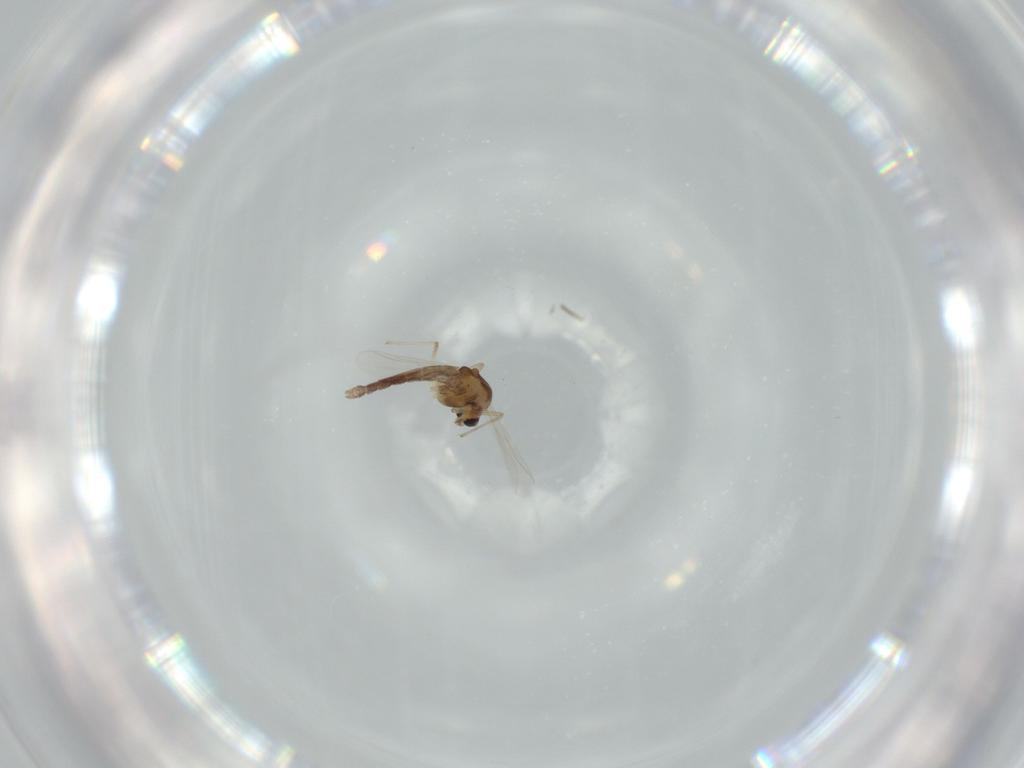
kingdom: Animalia
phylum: Arthropoda
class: Insecta
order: Diptera
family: Chironomidae
